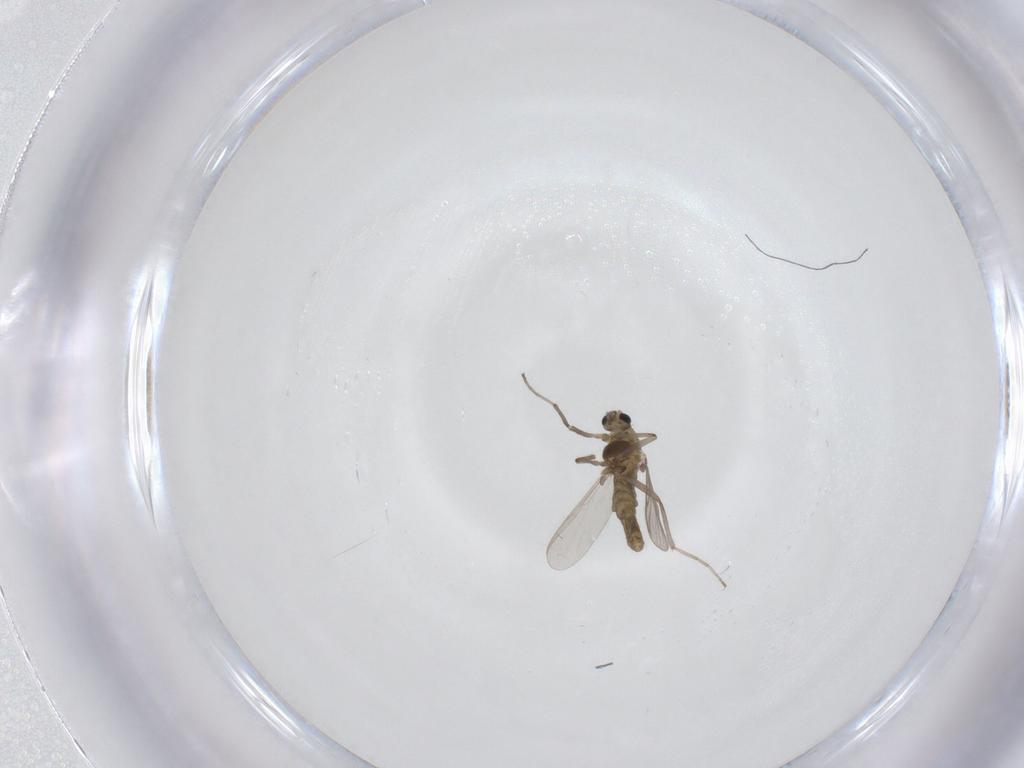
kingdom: Animalia
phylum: Arthropoda
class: Insecta
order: Diptera
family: Chironomidae
